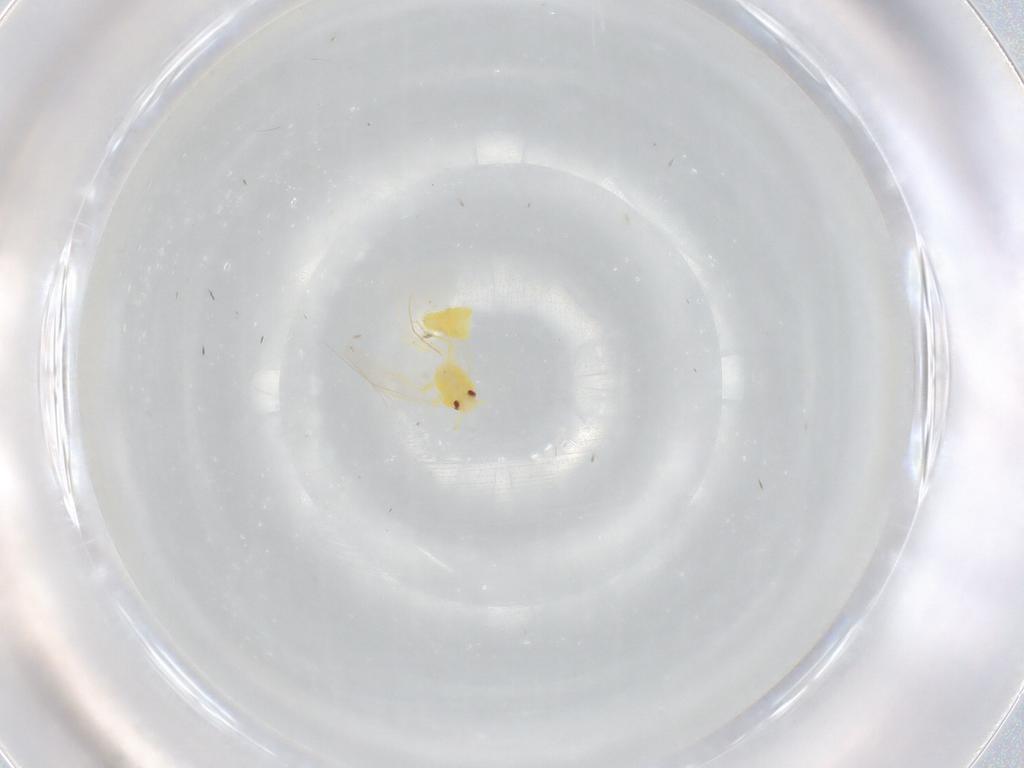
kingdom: Animalia
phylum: Arthropoda
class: Insecta
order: Hemiptera
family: Aleyrodidae
